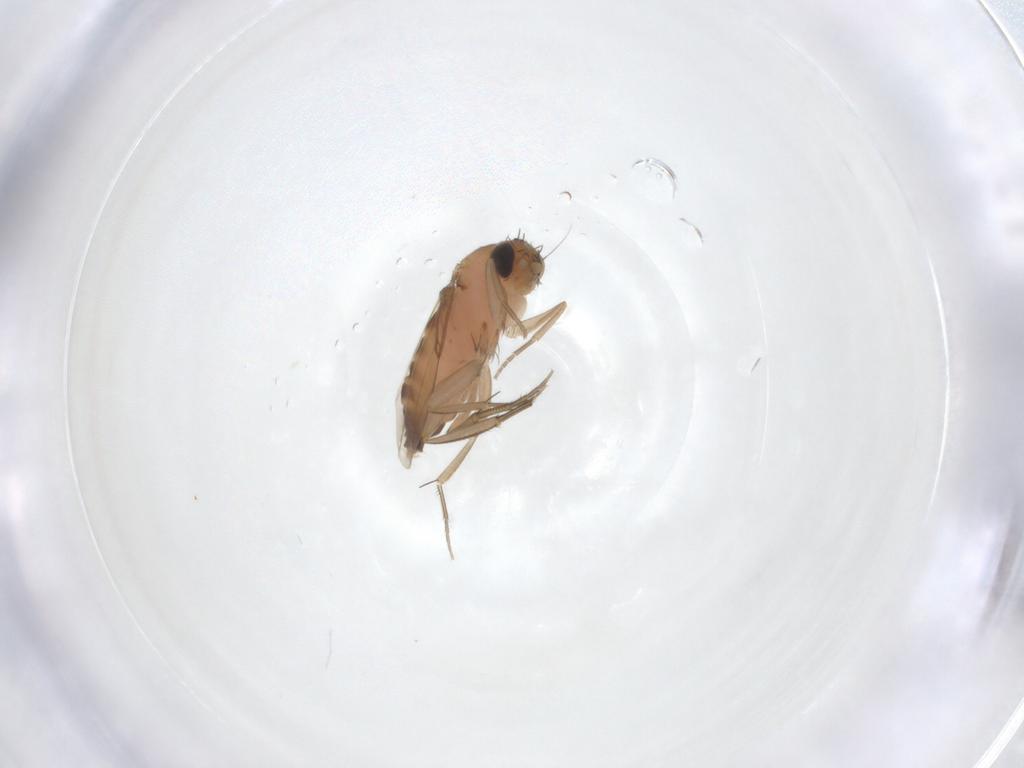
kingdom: Animalia
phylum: Arthropoda
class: Insecta
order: Diptera
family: Phoridae
